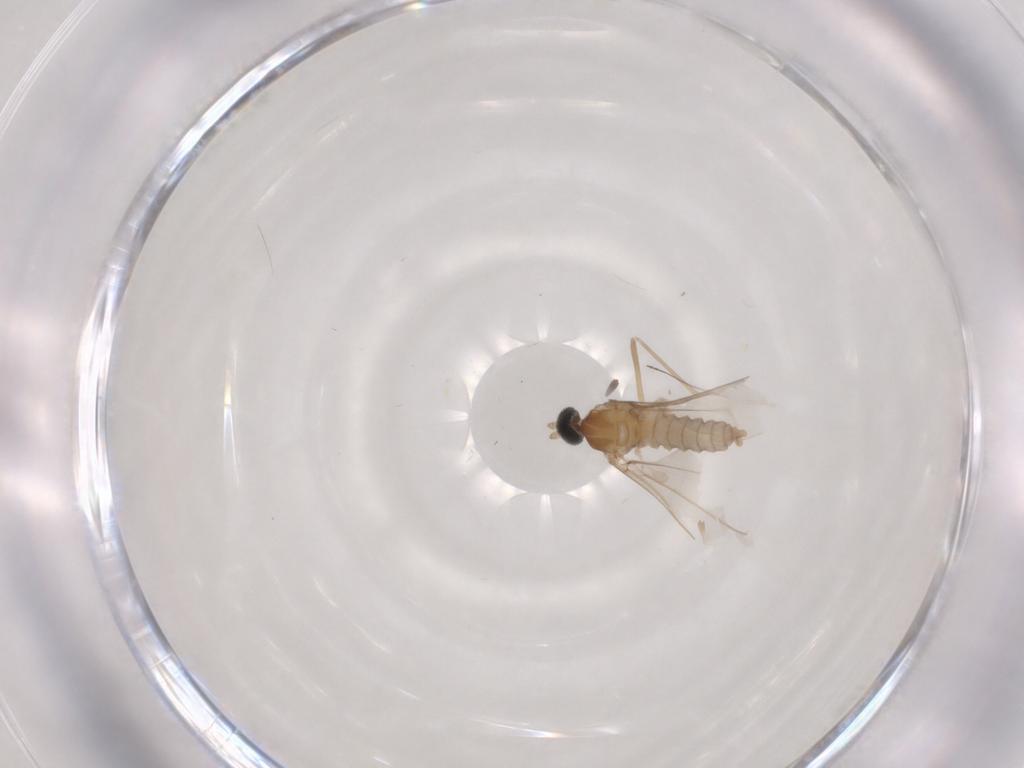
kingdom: Animalia
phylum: Arthropoda
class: Insecta
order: Diptera
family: Cecidomyiidae
